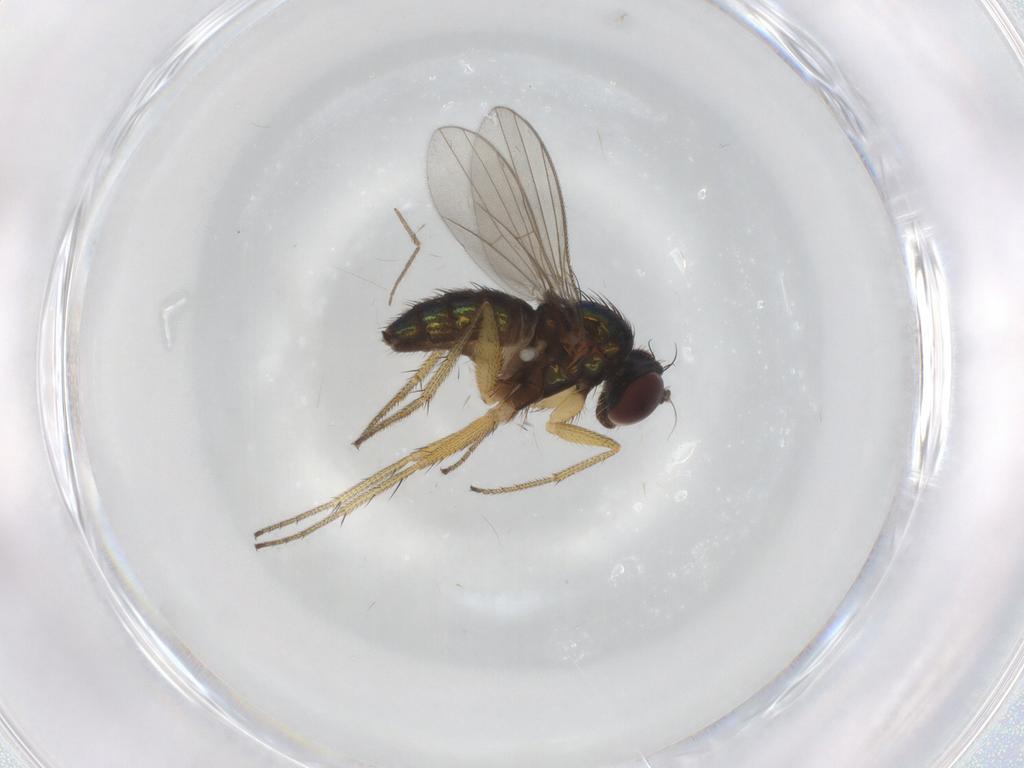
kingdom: Animalia
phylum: Arthropoda
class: Insecta
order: Diptera
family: Dolichopodidae
